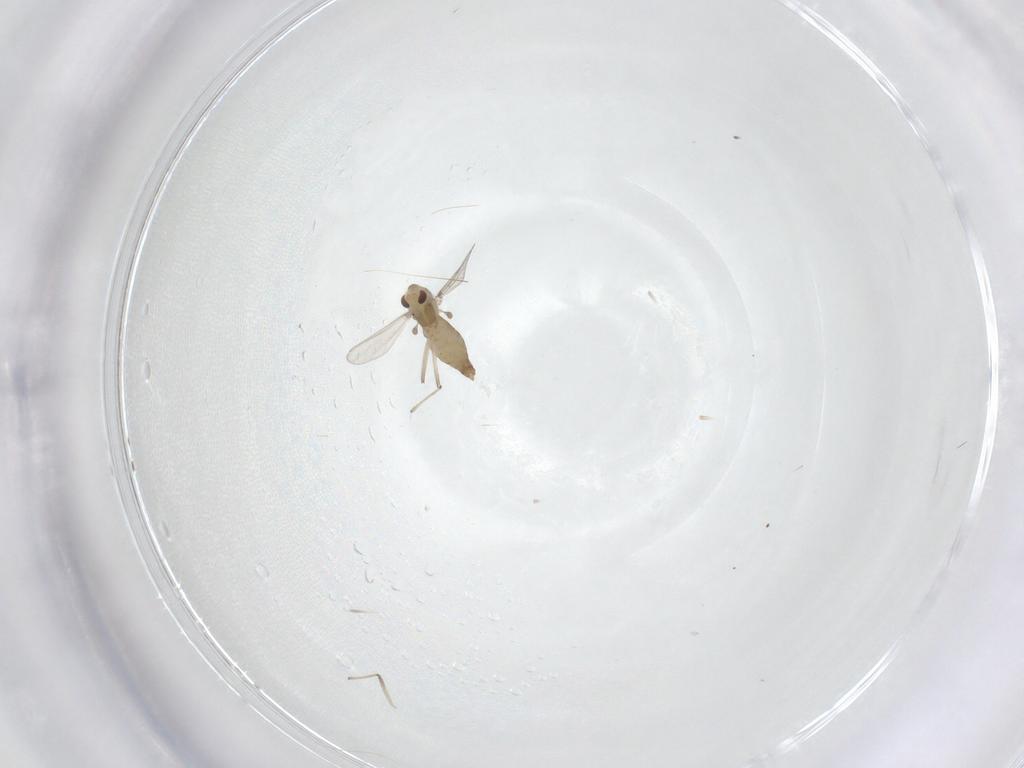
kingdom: Animalia
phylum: Arthropoda
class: Insecta
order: Diptera
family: Chironomidae
